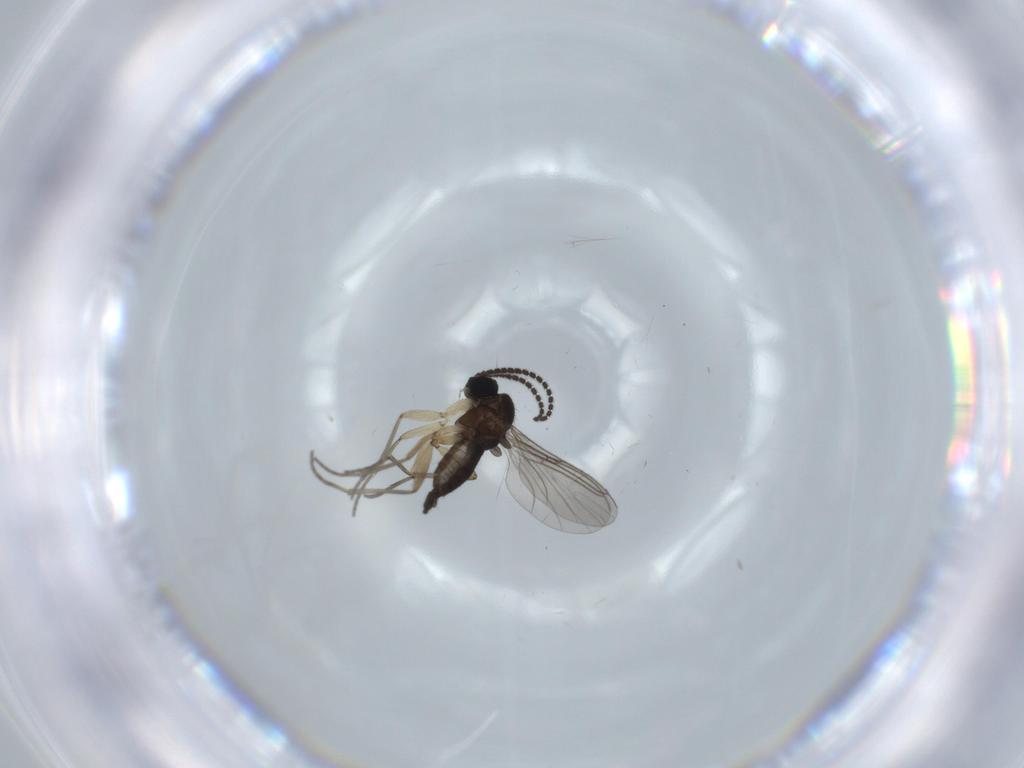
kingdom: Animalia
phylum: Arthropoda
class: Insecta
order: Diptera
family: Sciaridae
